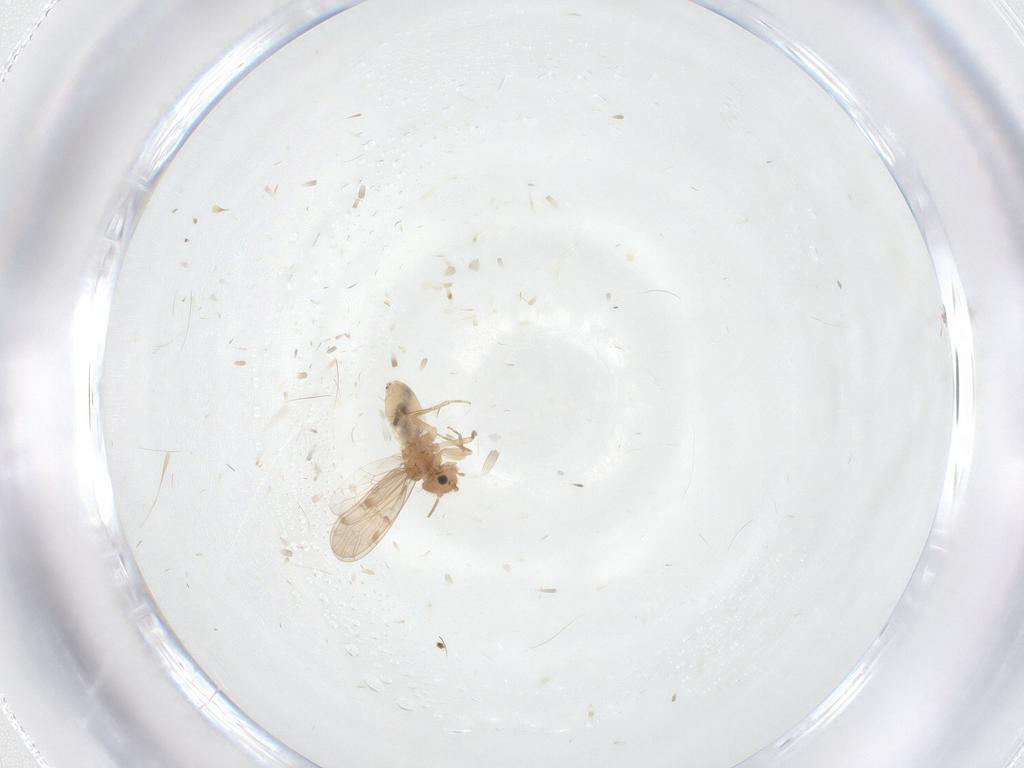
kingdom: Animalia
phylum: Arthropoda
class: Insecta
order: Psocodea
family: Ectopsocidae
